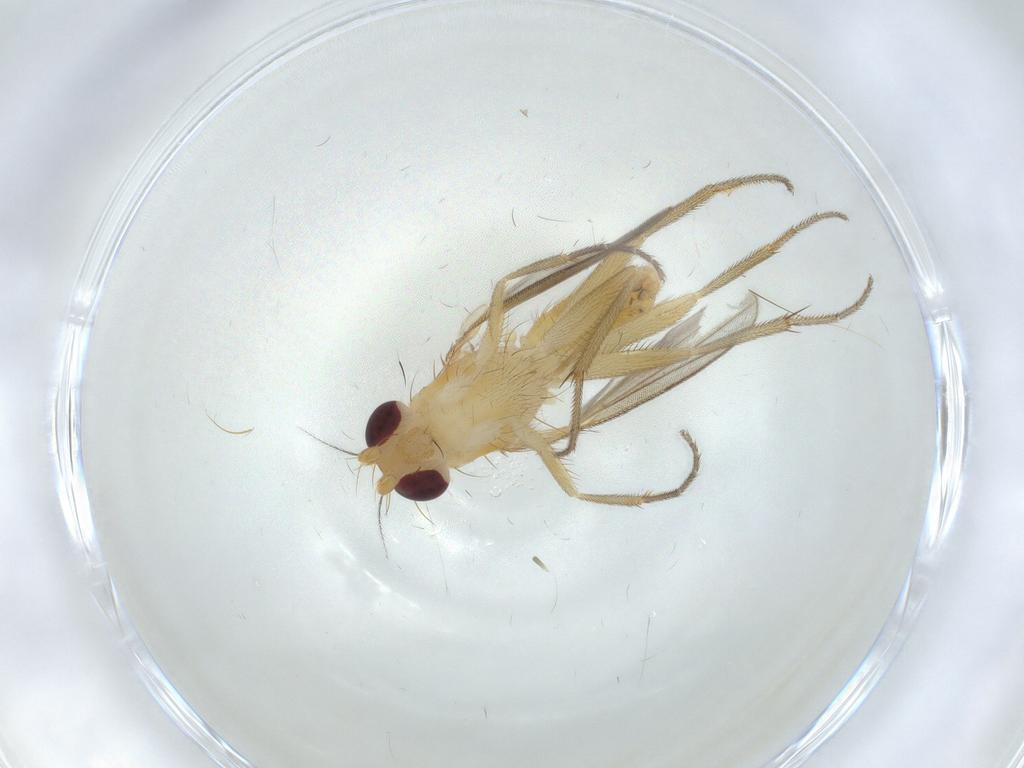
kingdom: Animalia
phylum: Arthropoda
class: Insecta
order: Diptera
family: Clusiidae
